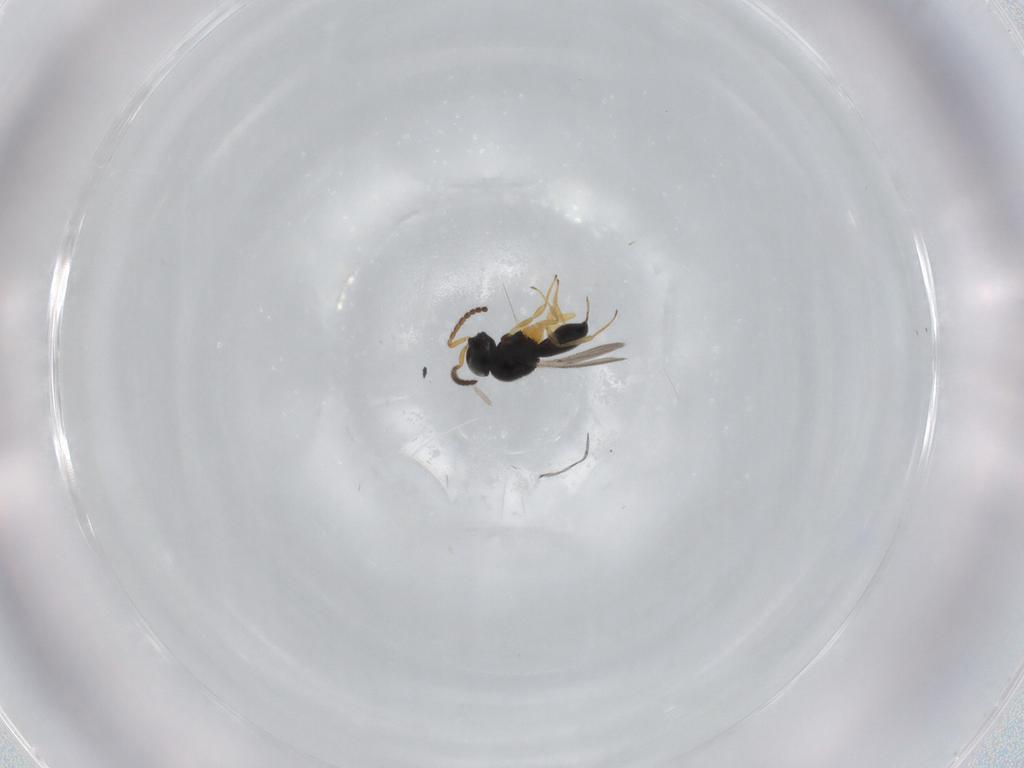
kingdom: Animalia
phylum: Arthropoda
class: Insecta
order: Hymenoptera
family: Scelionidae
